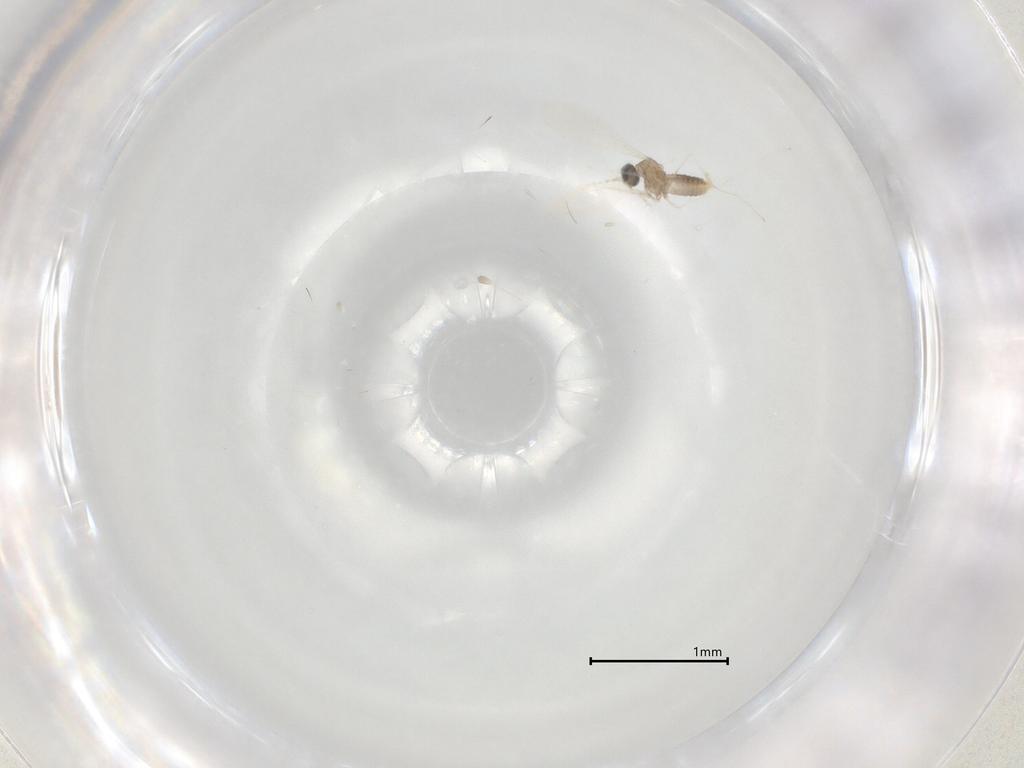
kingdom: Animalia
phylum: Arthropoda
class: Insecta
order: Diptera
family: Cecidomyiidae
